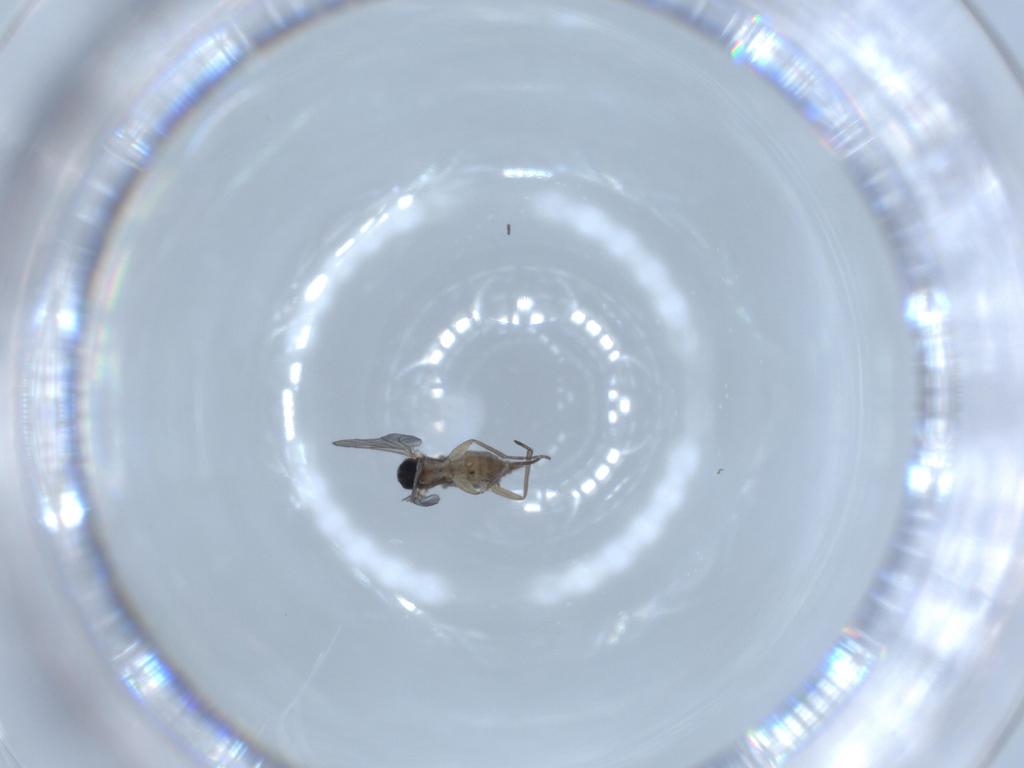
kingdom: Animalia
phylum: Arthropoda
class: Insecta
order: Diptera
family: Sciaridae
